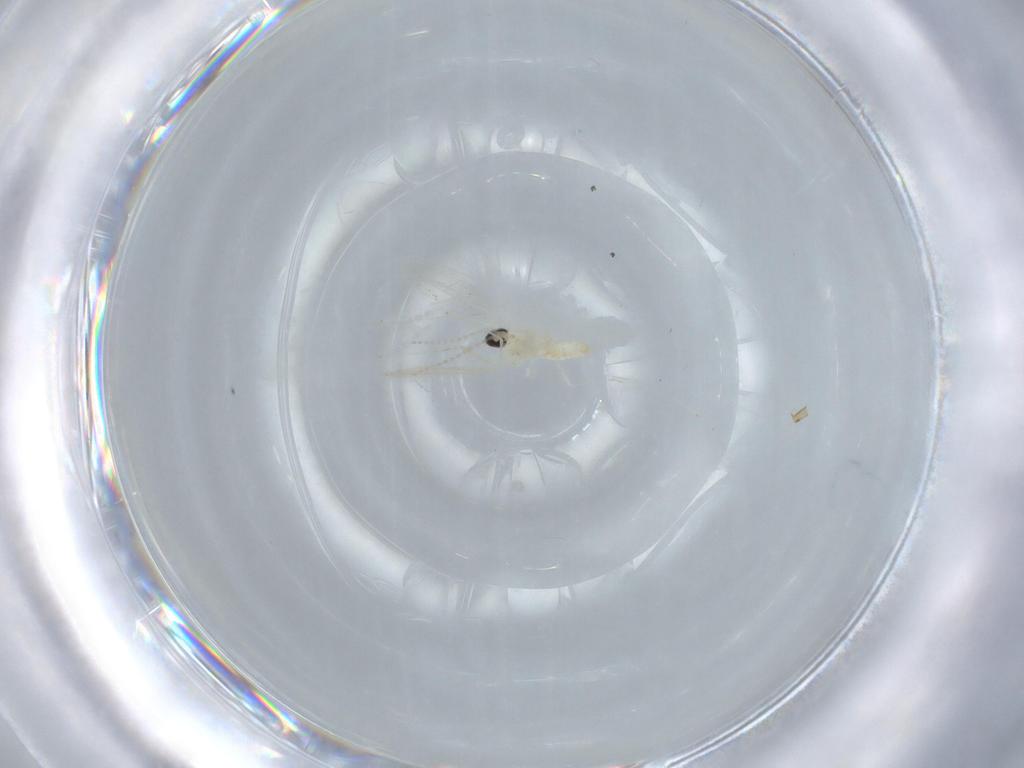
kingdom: Animalia
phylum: Arthropoda
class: Insecta
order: Diptera
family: Cecidomyiidae
